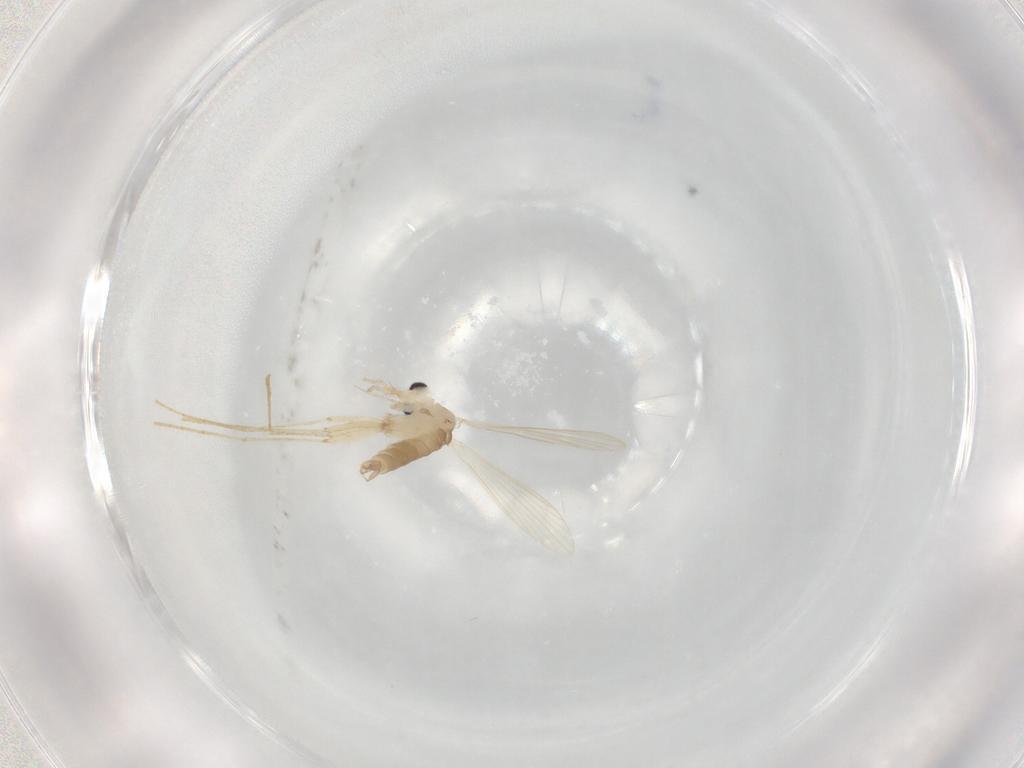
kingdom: Animalia
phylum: Arthropoda
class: Insecta
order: Diptera
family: Psychodidae
